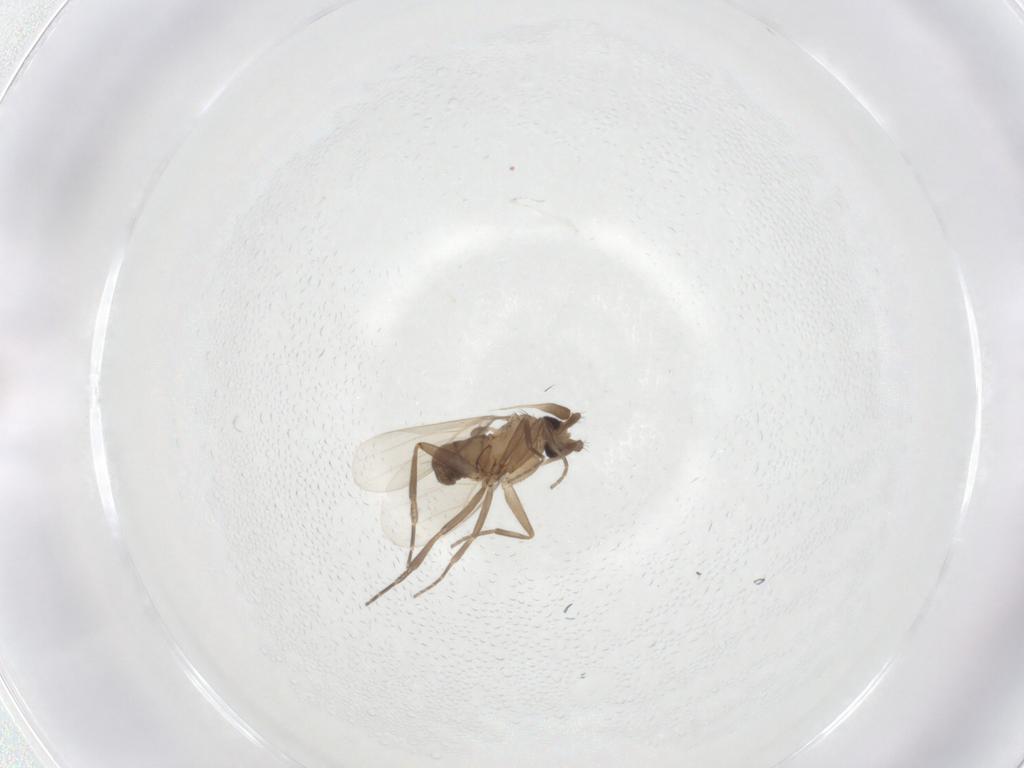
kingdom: Animalia
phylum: Arthropoda
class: Insecta
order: Diptera
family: Phoridae
